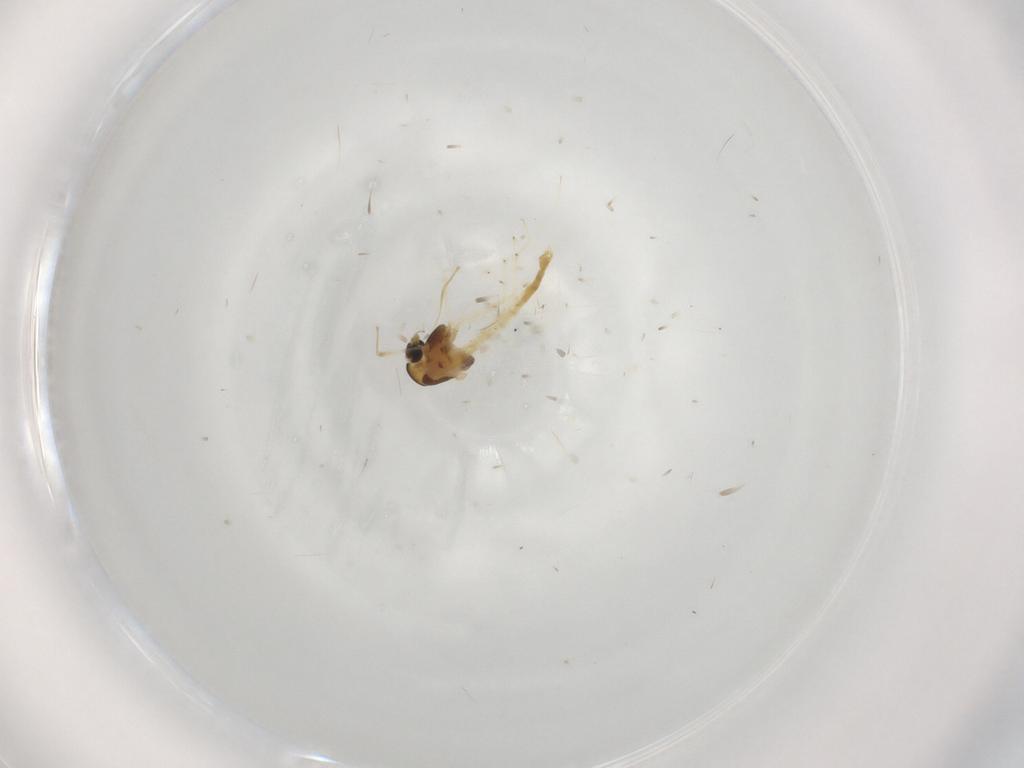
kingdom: Animalia
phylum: Arthropoda
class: Insecta
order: Diptera
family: Chironomidae
